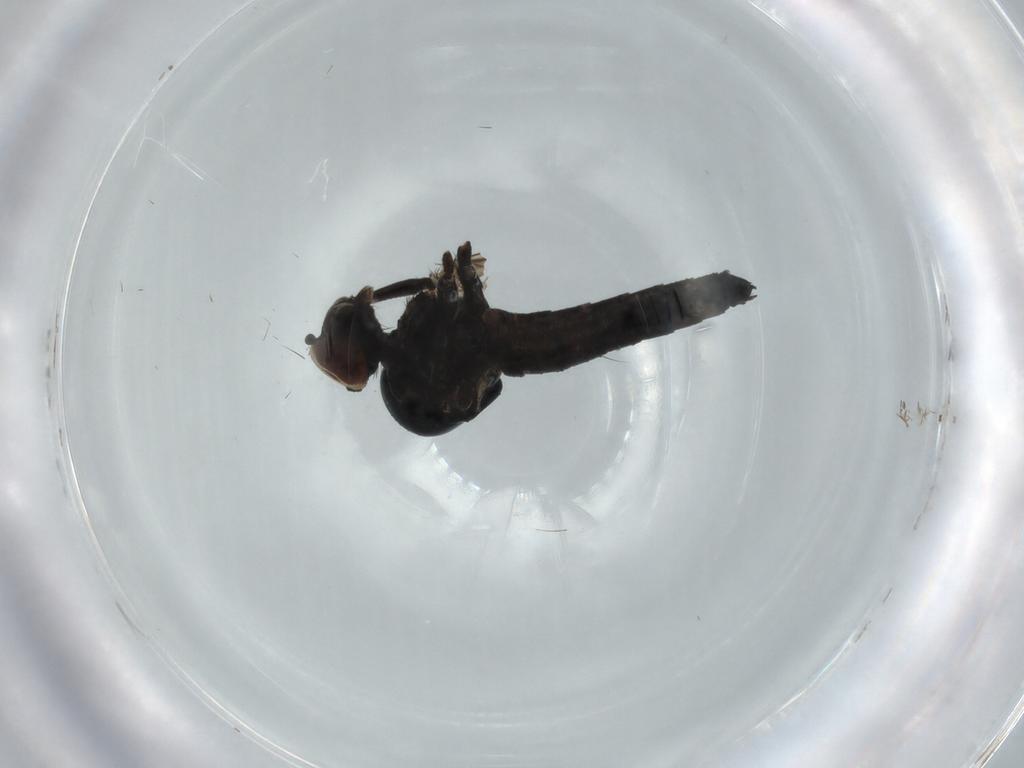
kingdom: Animalia
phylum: Arthropoda
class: Insecta
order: Diptera
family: Hybotidae
